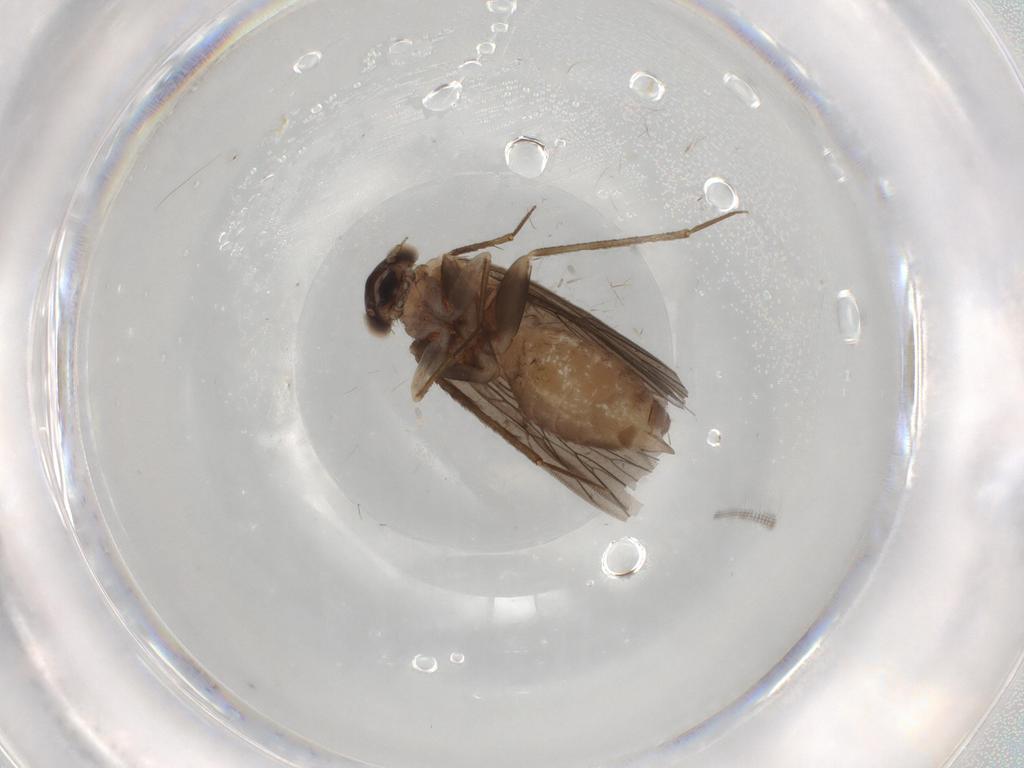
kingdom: Animalia
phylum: Arthropoda
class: Insecta
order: Psocodea
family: Lepidopsocidae
